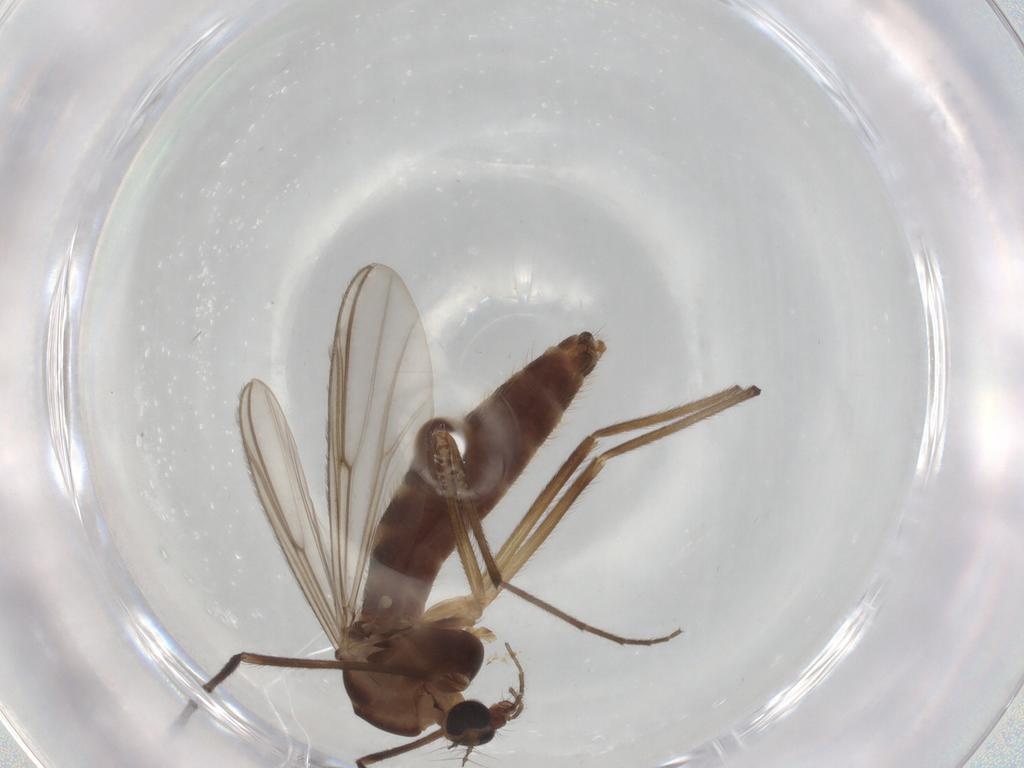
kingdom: Animalia
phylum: Arthropoda
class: Insecta
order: Diptera
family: Chironomidae
